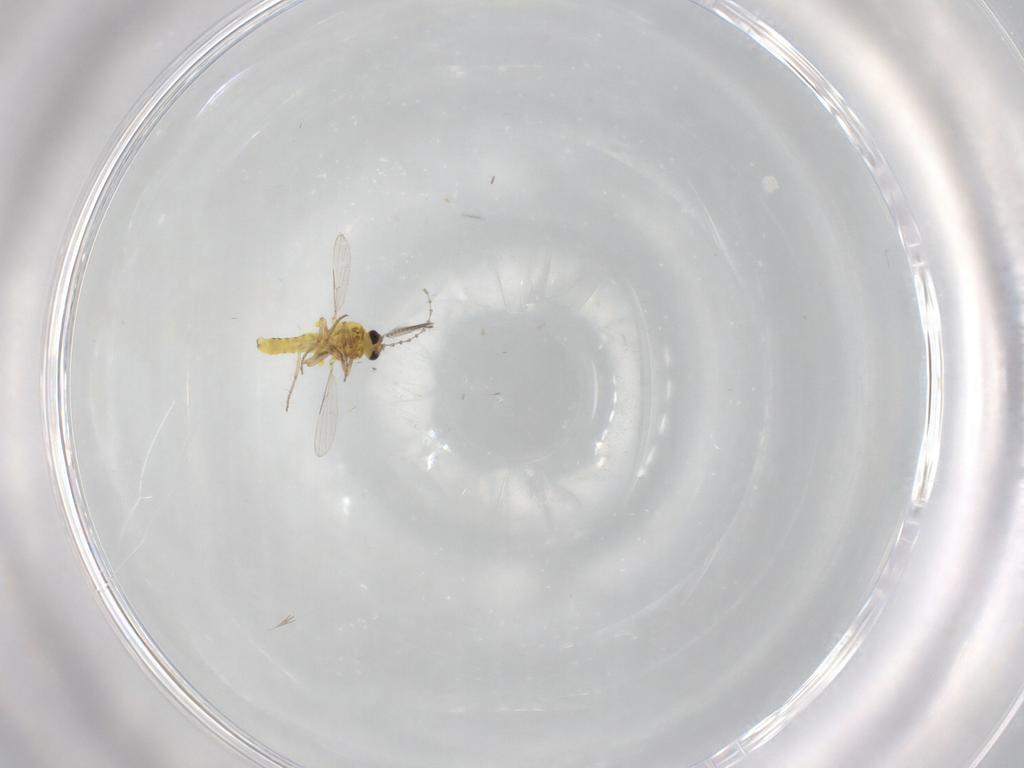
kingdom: Animalia
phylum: Arthropoda
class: Insecta
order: Diptera
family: Ceratopogonidae
